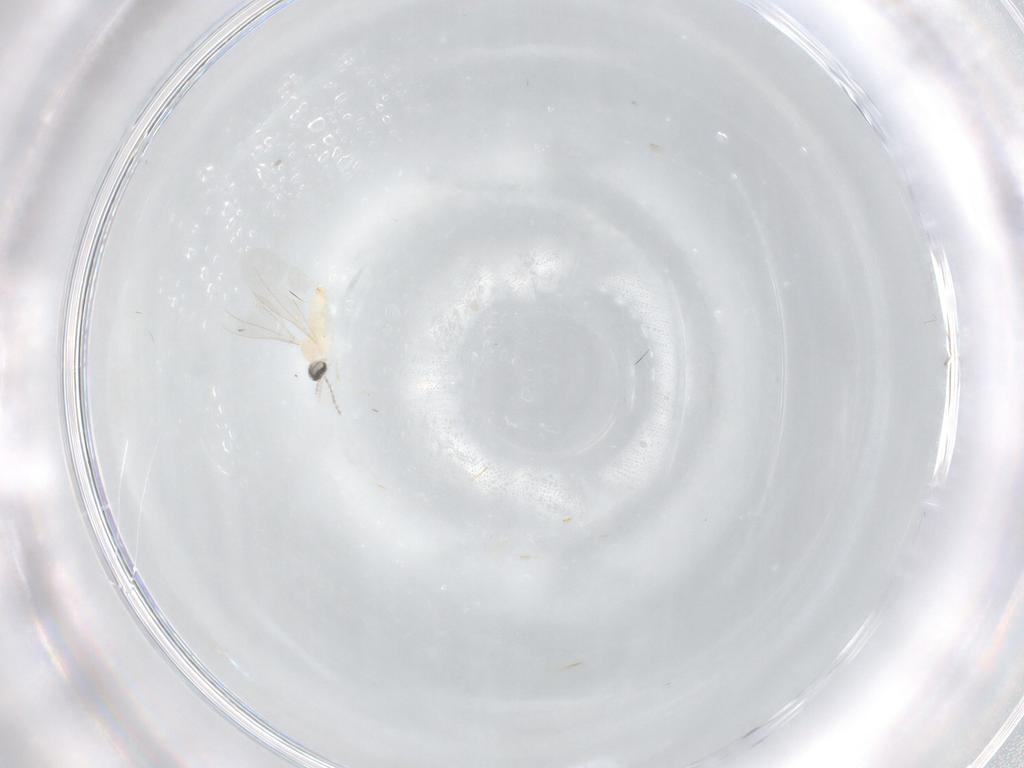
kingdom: Animalia
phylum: Arthropoda
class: Insecta
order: Diptera
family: Cecidomyiidae
